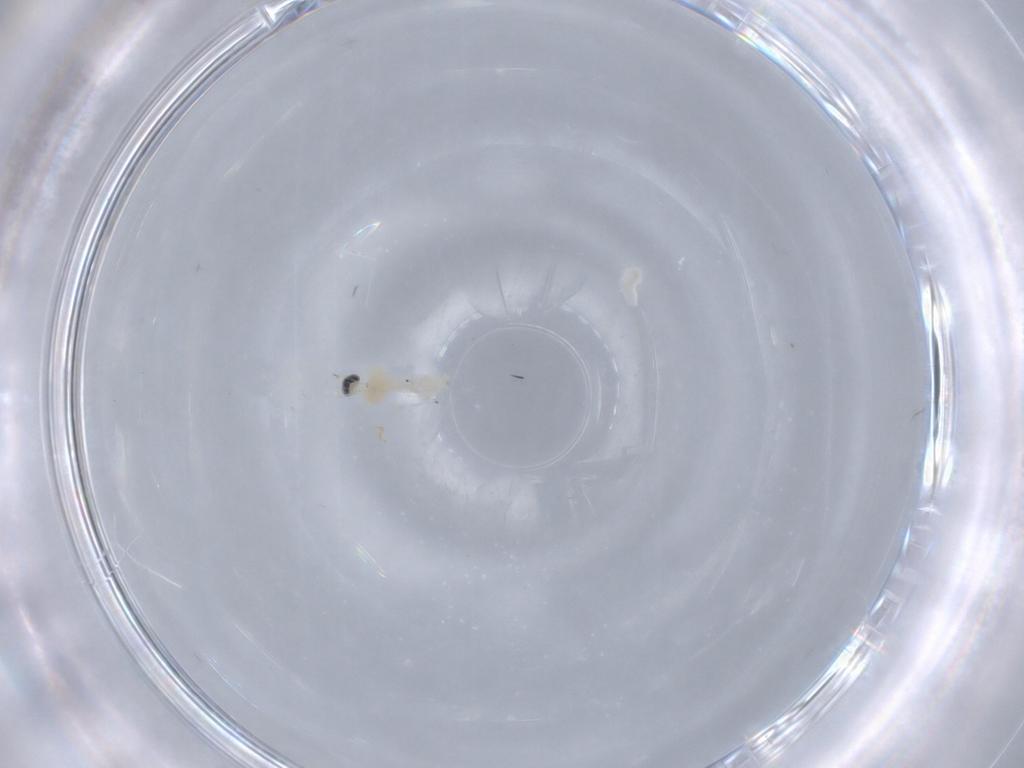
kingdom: Animalia
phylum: Arthropoda
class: Insecta
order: Diptera
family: Cecidomyiidae
